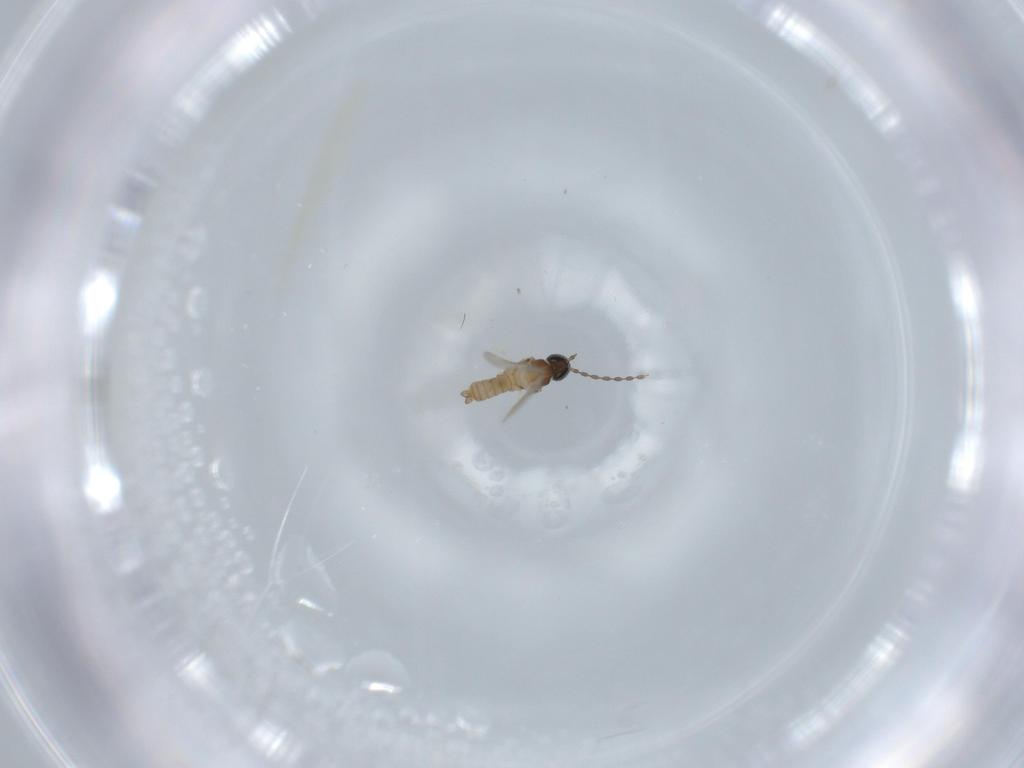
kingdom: Animalia
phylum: Arthropoda
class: Insecta
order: Diptera
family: Cecidomyiidae
